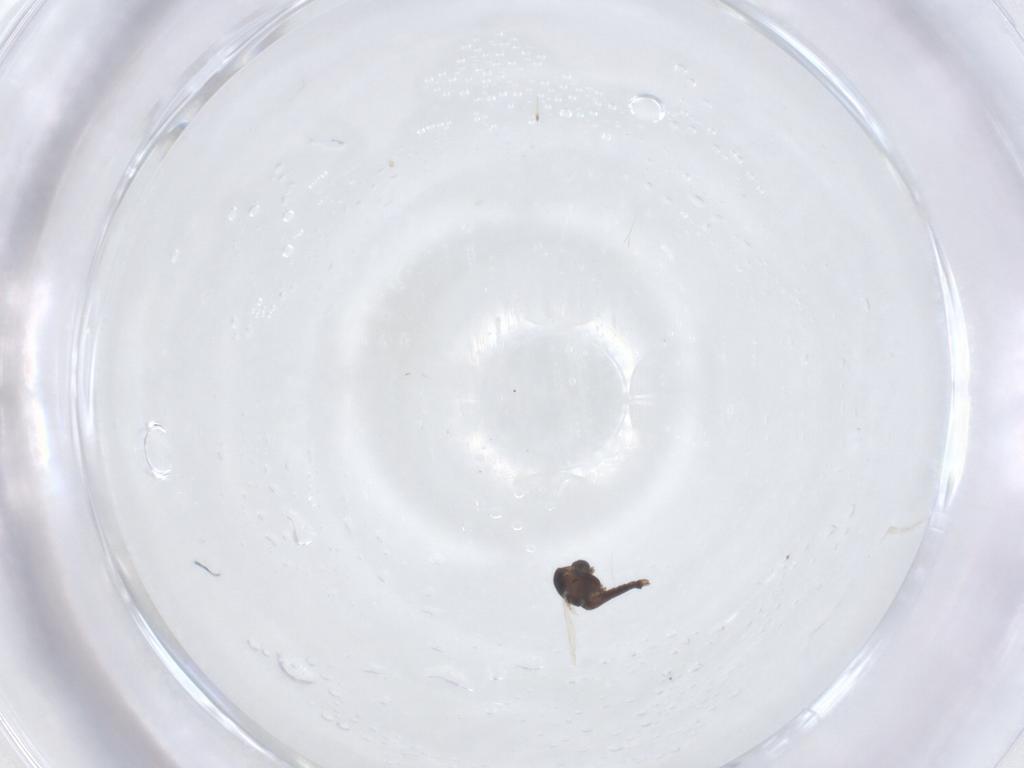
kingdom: Animalia
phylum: Arthropoda
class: Insecta
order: Diptera
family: Chironomidae
